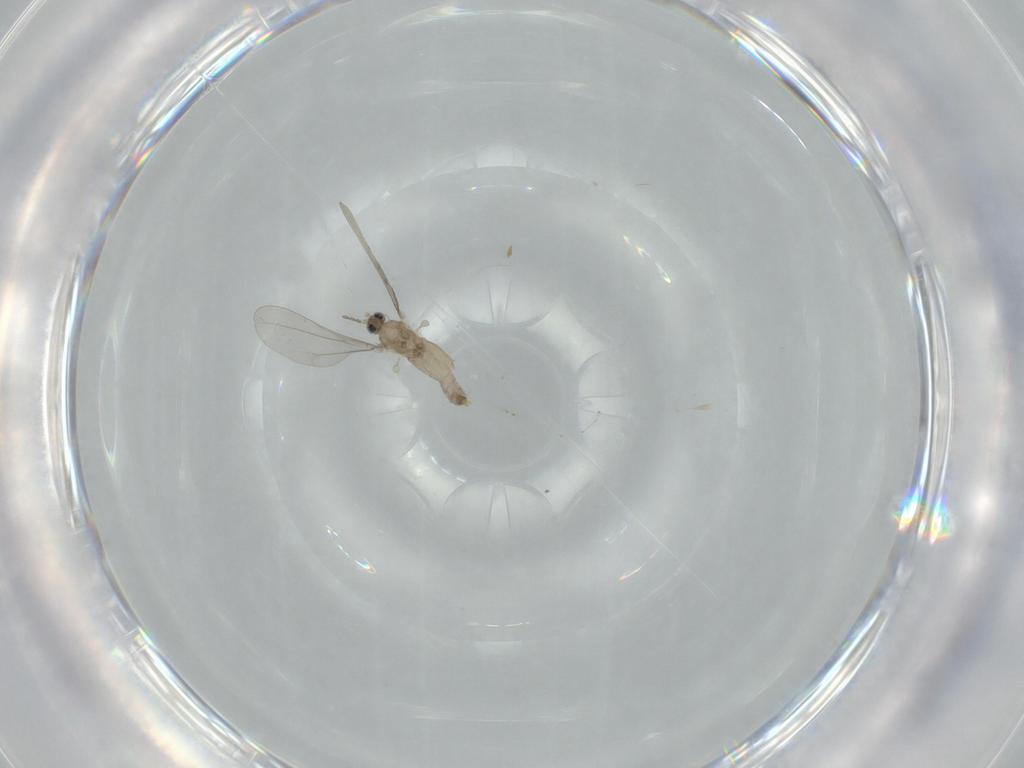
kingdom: Animalia
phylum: Arthropoda
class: Insecta
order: Diptera
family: Cecidomyiidae
